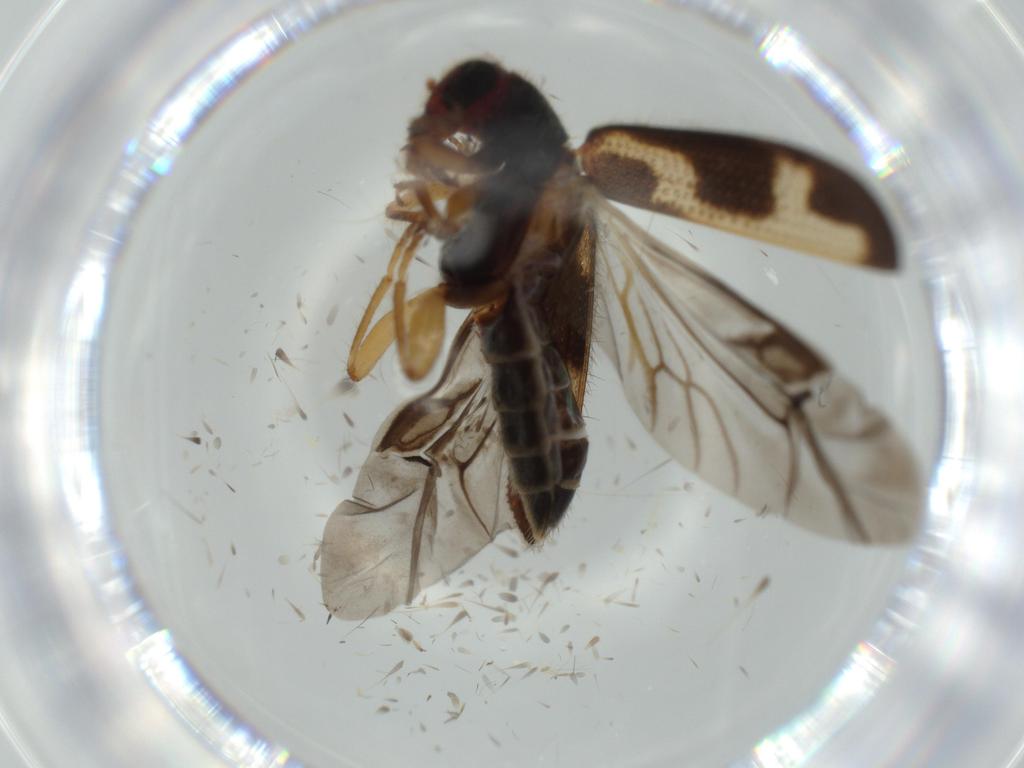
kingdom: Animalia
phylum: Arthropoda
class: Insecta
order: Coleoptera
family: Cleridae
